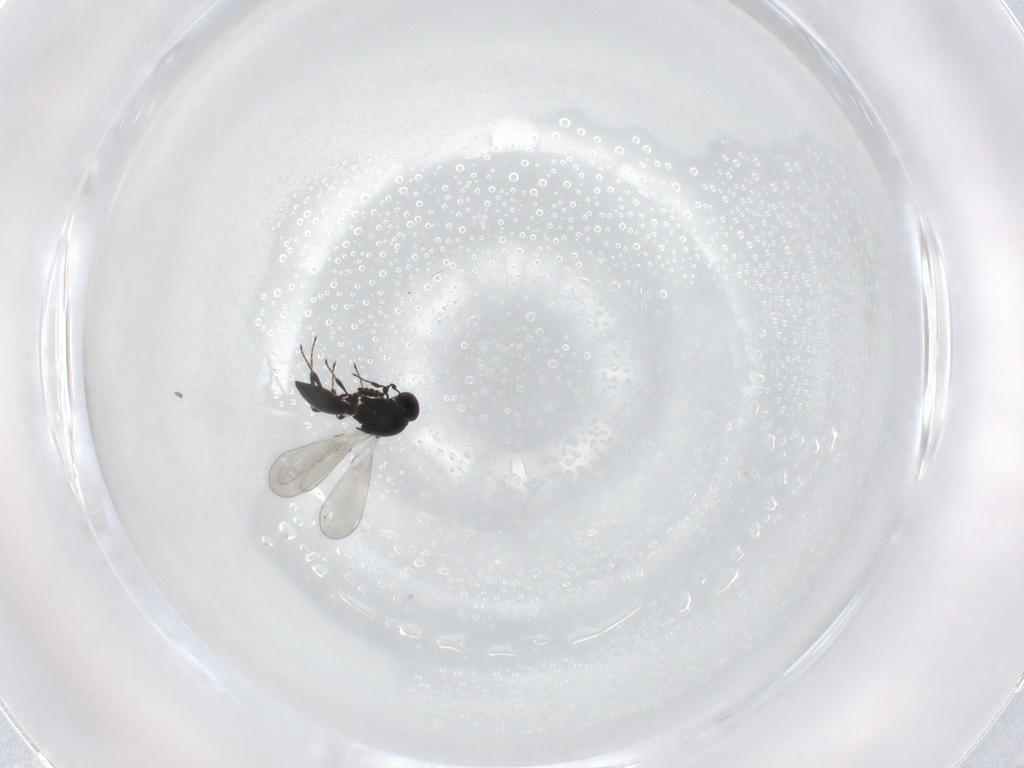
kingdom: Animalia
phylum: Arthropoda
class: Insecta
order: Hymenoptera
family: Platygastridae
